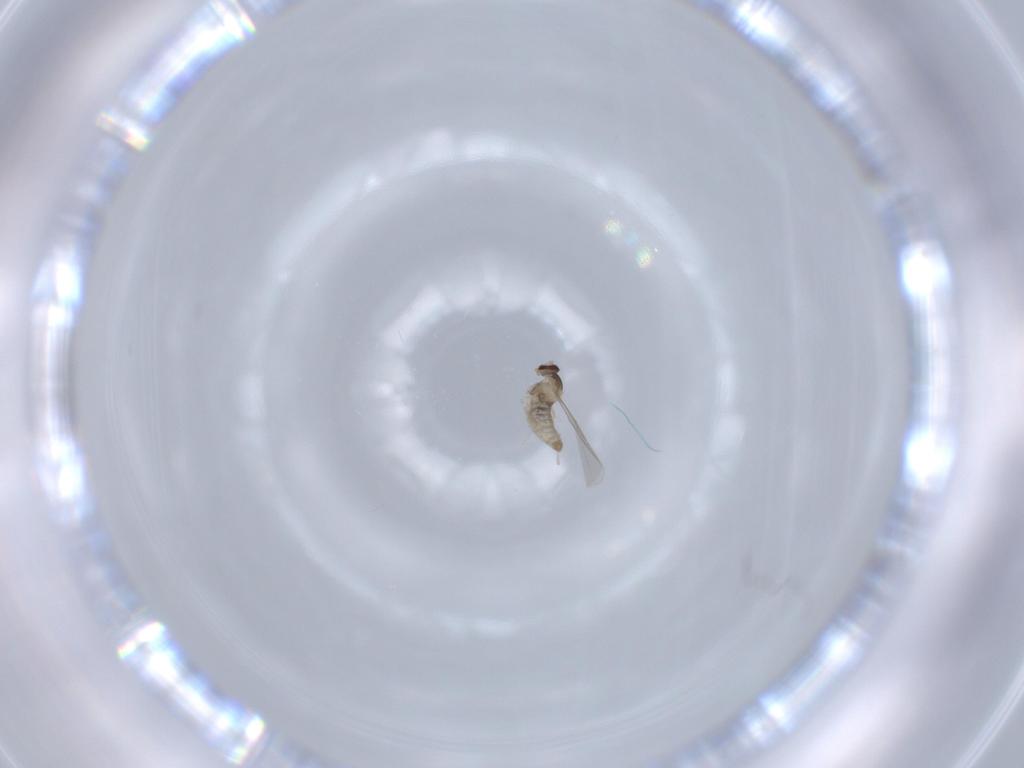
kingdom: Animalia
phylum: Arthropoda
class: Insecta
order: Diptera
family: Cecidomyiidae
